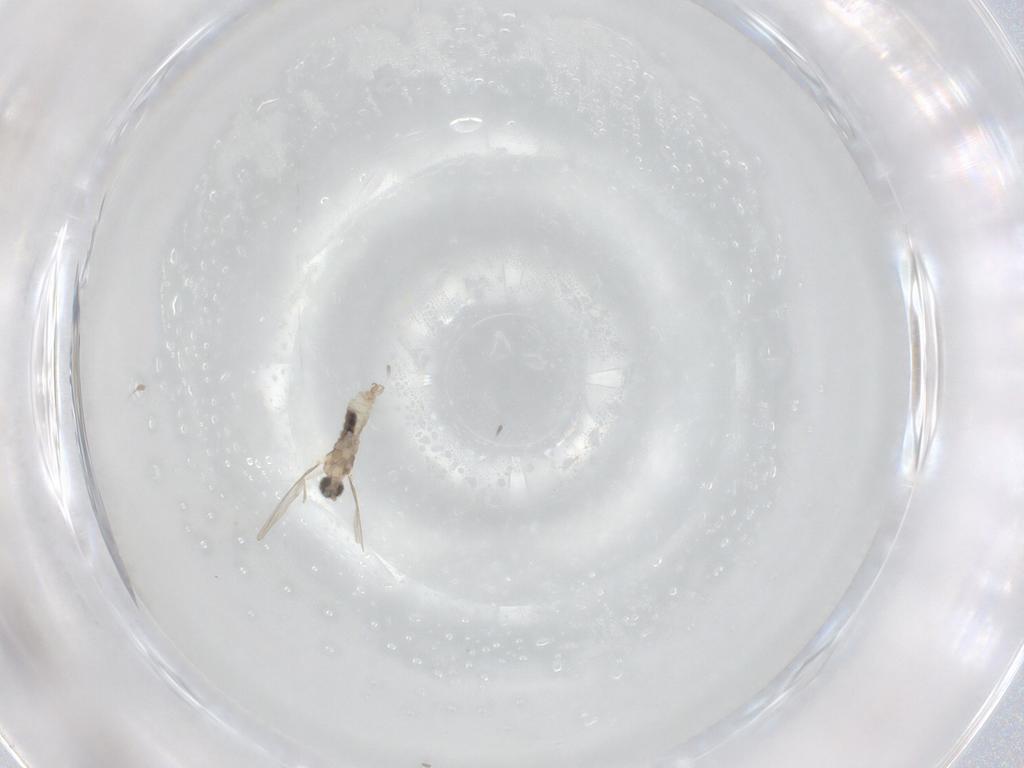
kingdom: Animalia
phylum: Arthropoda
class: Insecta
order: Diptera
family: Cecidomyiidae
